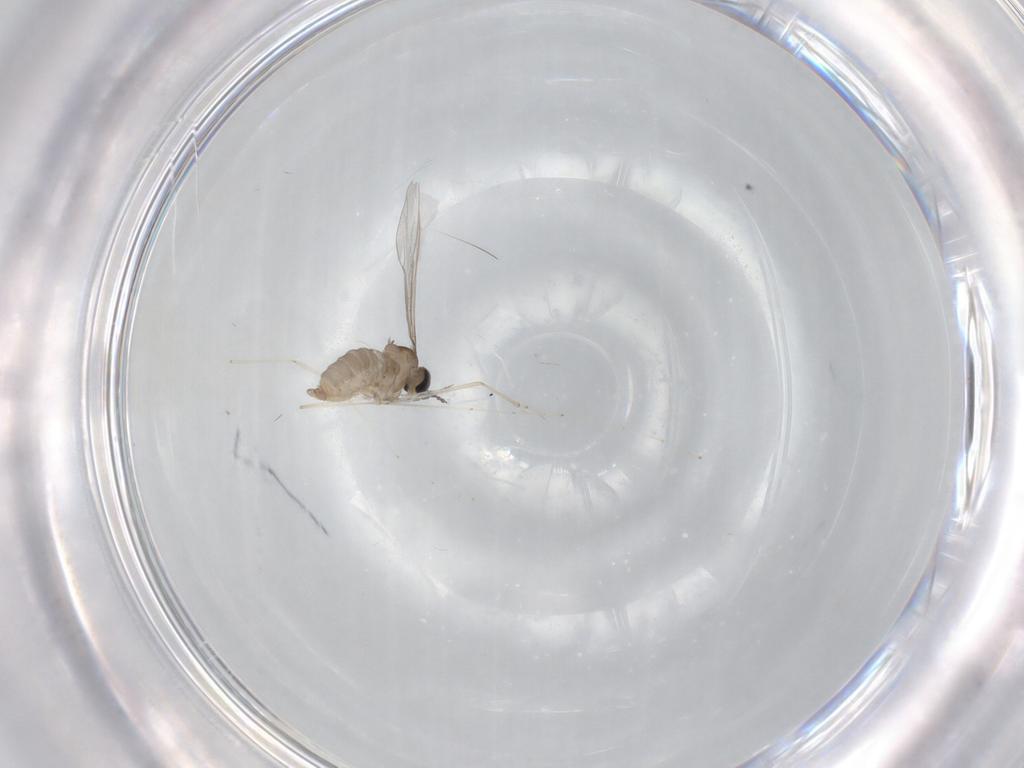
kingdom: Animalia
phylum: Arthropoda
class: Insecta
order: Diptera
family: Cecidomyiidae
